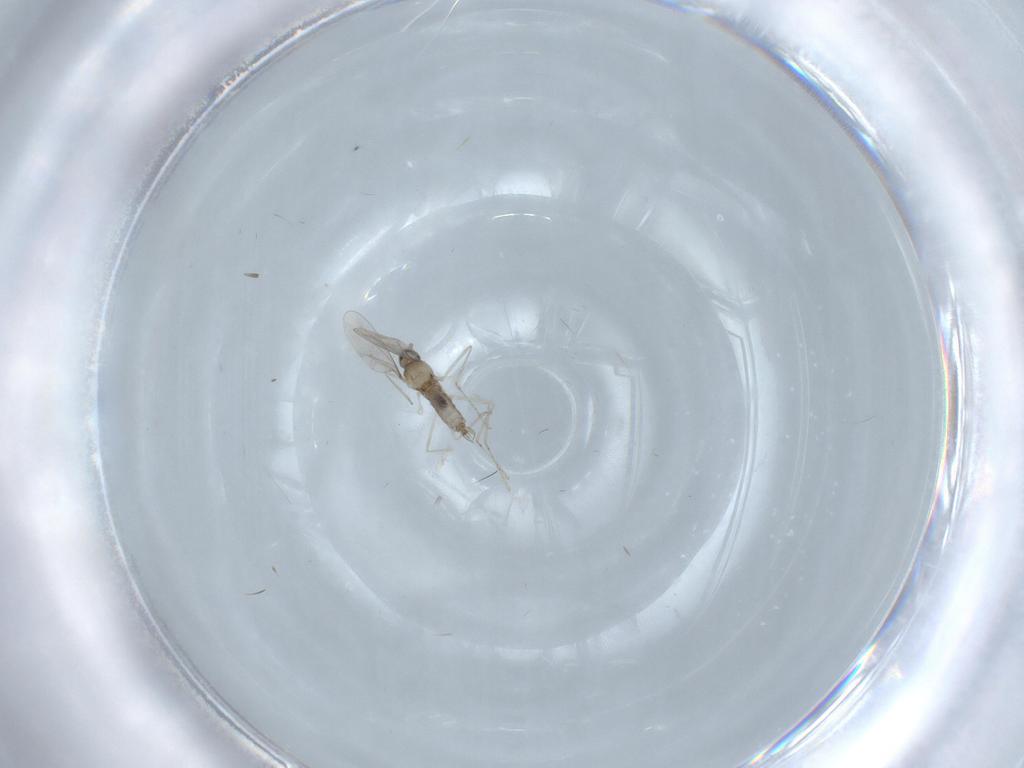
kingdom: Animalia
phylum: Arthropoda
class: Insecta
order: Diptera
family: Cecidomyiidae
